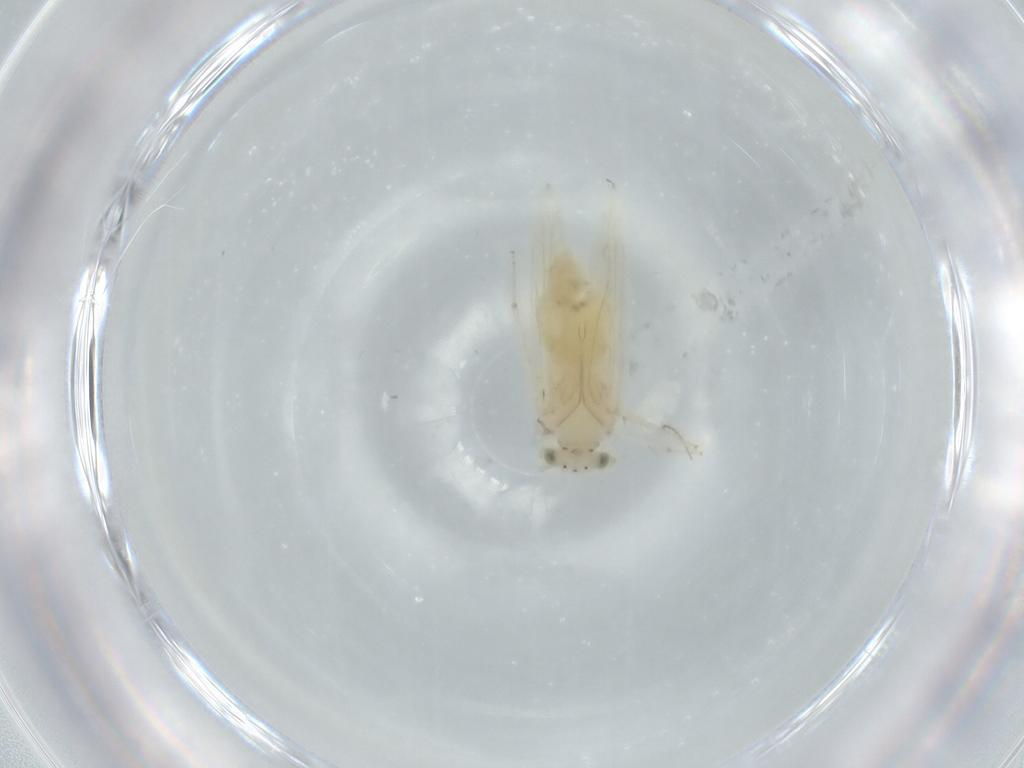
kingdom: Animalia
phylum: Arthropoda
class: Insecta
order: Psocodea
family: Lepidopsocidae
